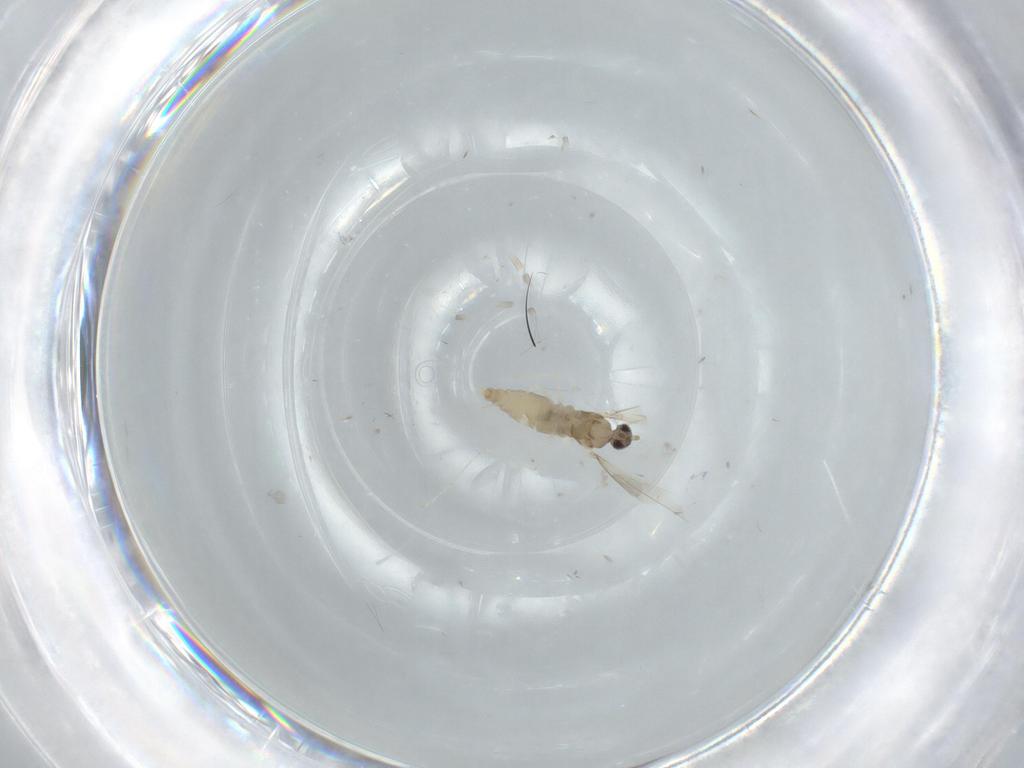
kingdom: Animalia
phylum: Arthropoda
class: Insecta
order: Diptera
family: Cecidomyiidae
